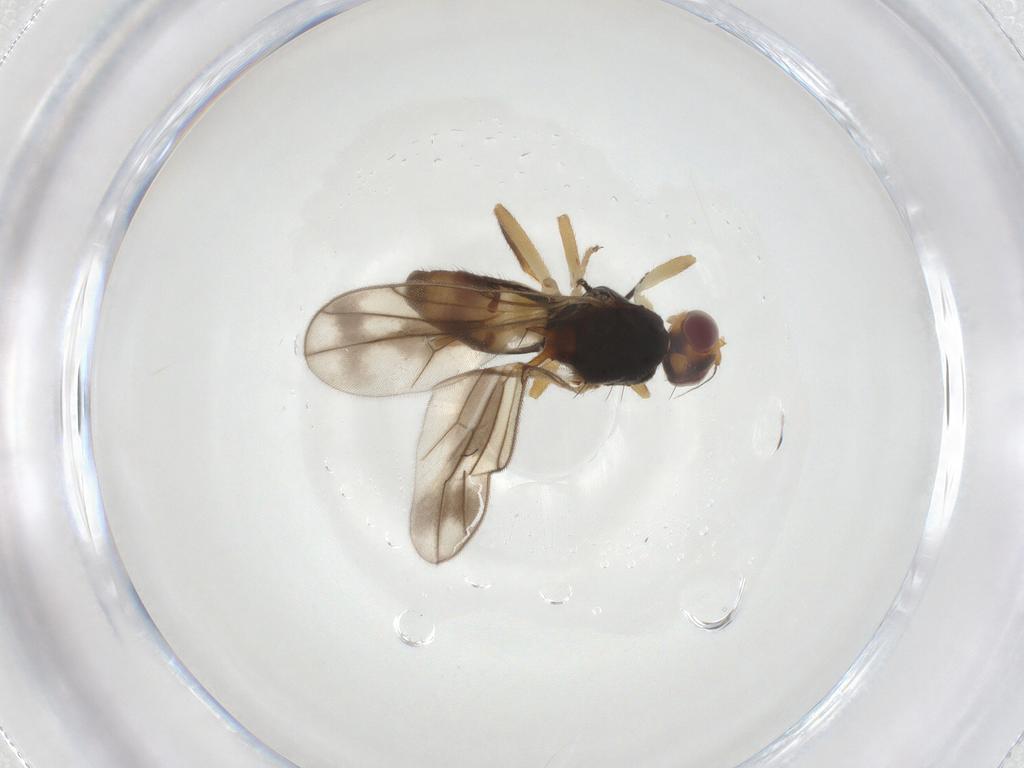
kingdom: Animalia
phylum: Arthropoda
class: Insecta
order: Diptera
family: Chloropidae
